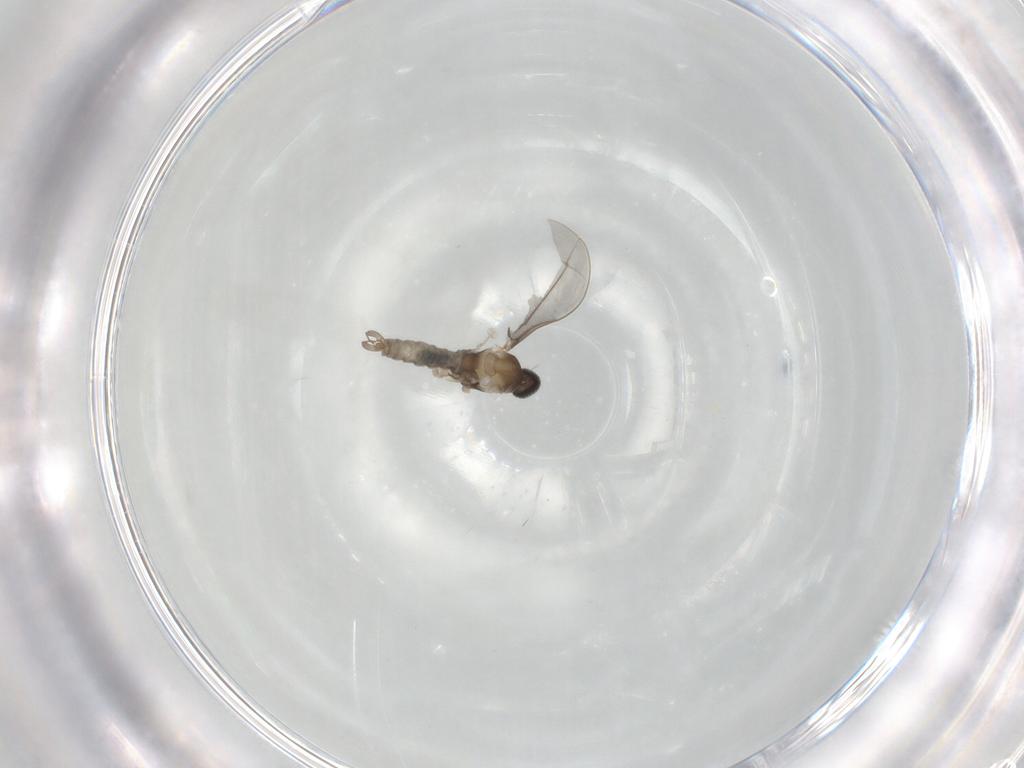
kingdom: Animalia
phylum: Arthropoda
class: Insecta
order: Diptera
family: Cecidomyiidae
